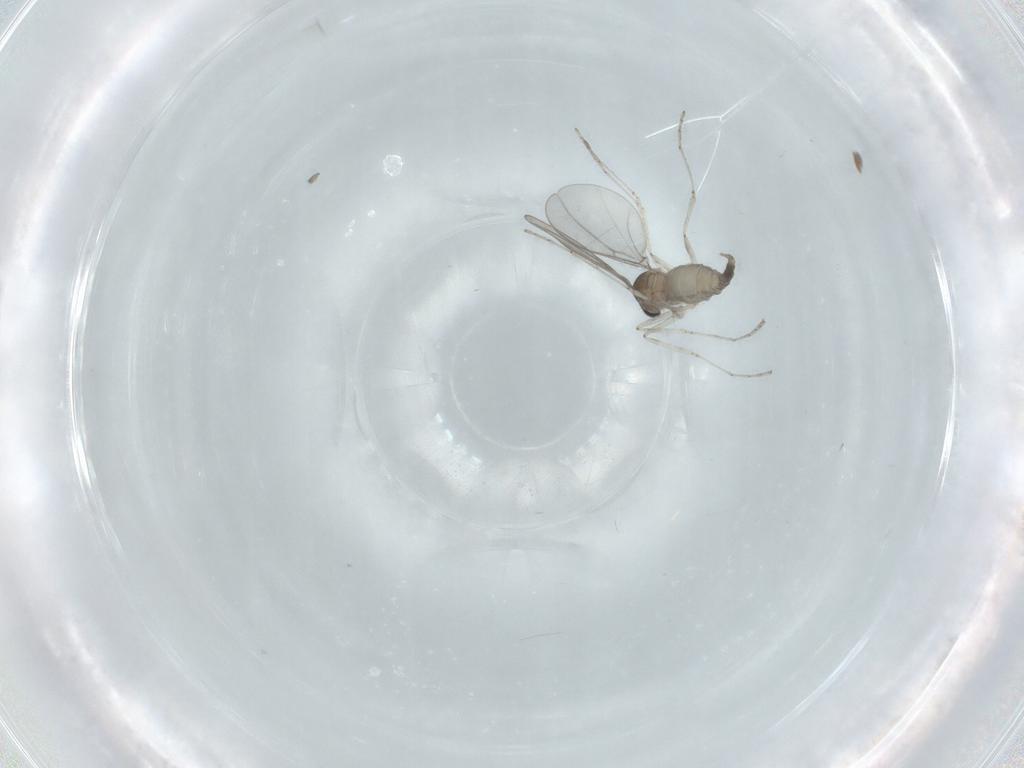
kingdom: Animalia
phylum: Arthropoda
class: Insecta
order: Diptera
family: Cecidomyiidae
